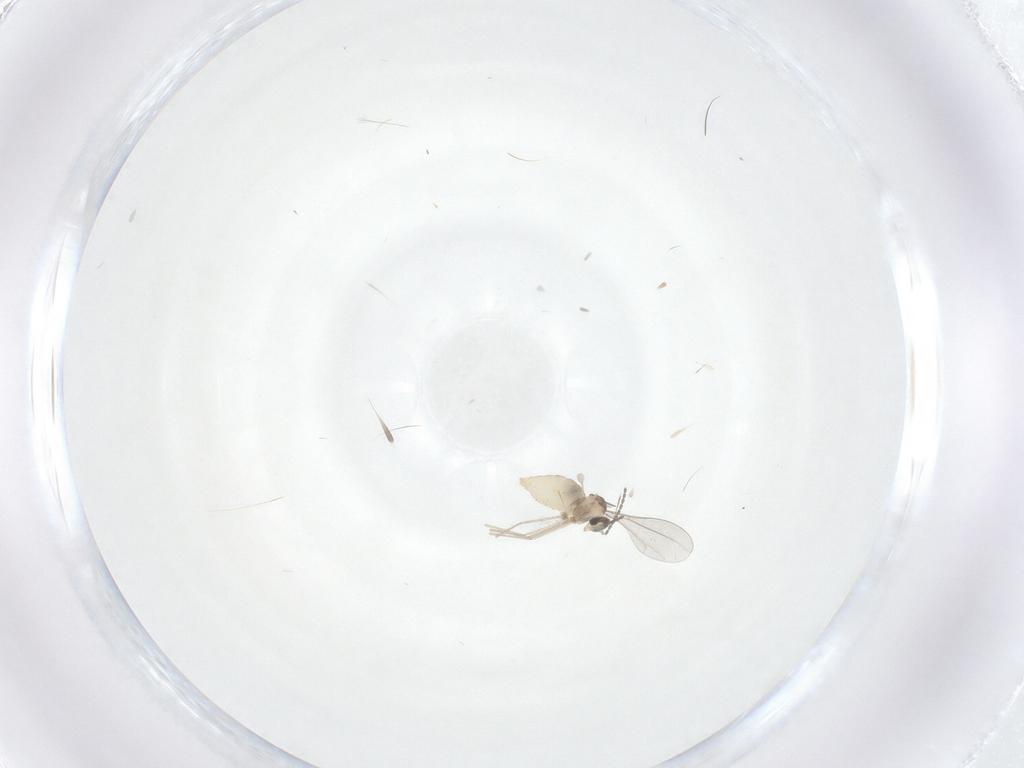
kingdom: Animalia
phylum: Arthropoda
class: Insecta
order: Diptera
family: Cecidomyiidae
